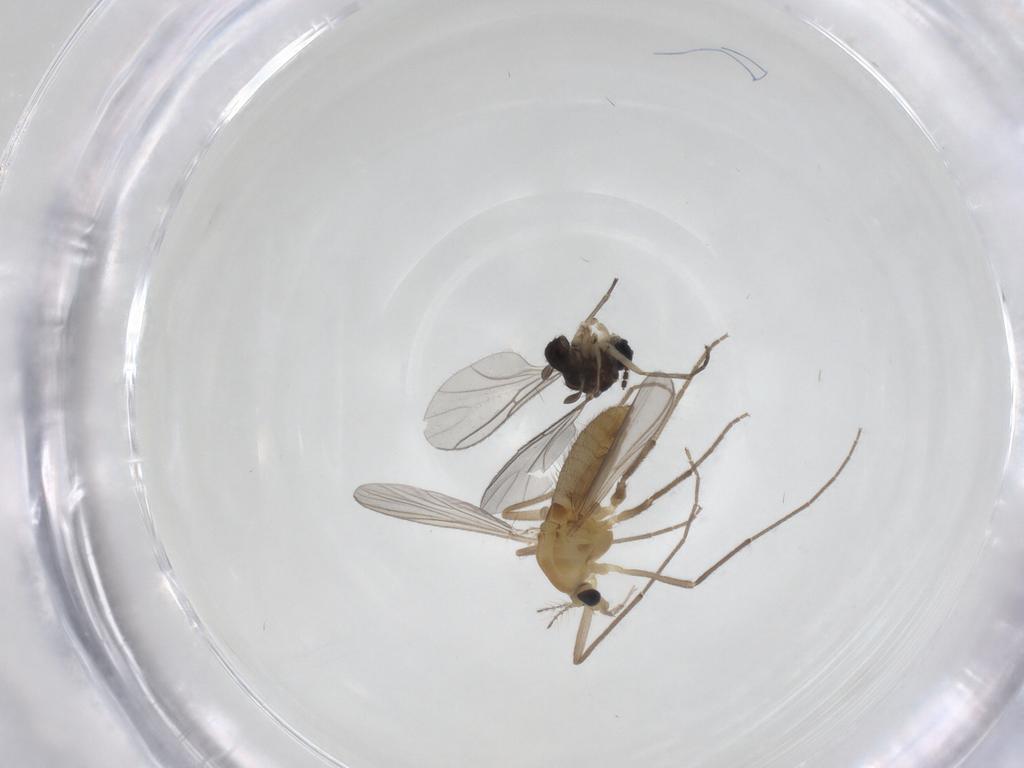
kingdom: Animalia
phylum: Arthropoda
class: Insecta
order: Diptera
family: Chironomidae
